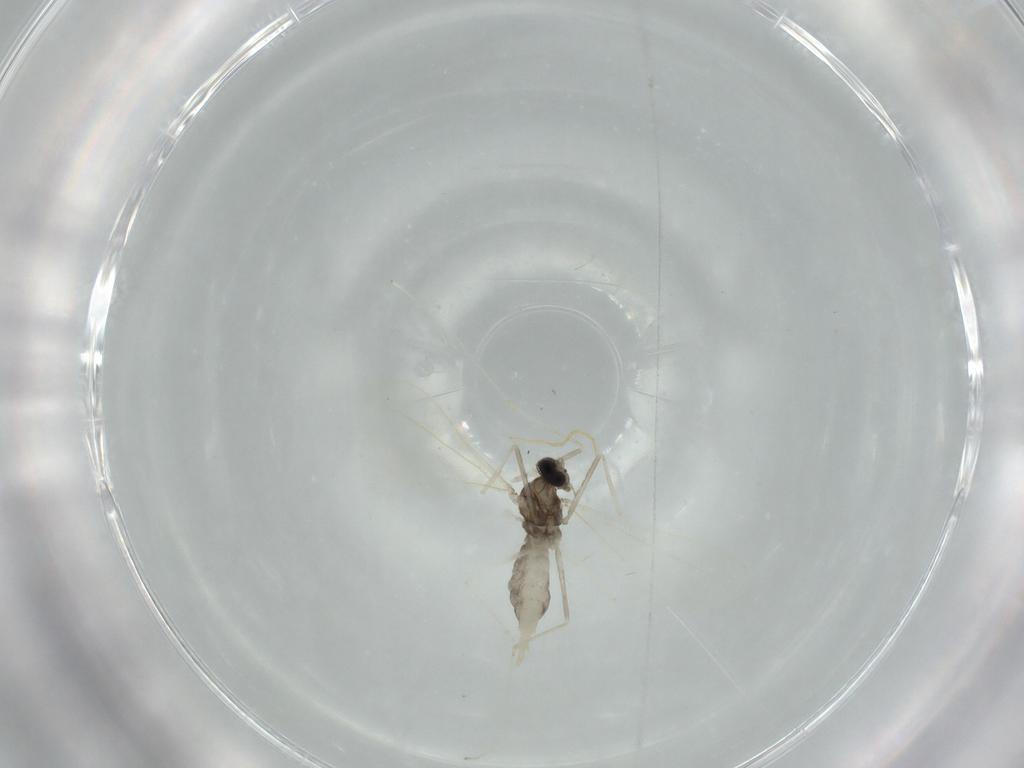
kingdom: Animalia
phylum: Arthropoda
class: Insecta
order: Diptera
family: Cecidomyiidae
